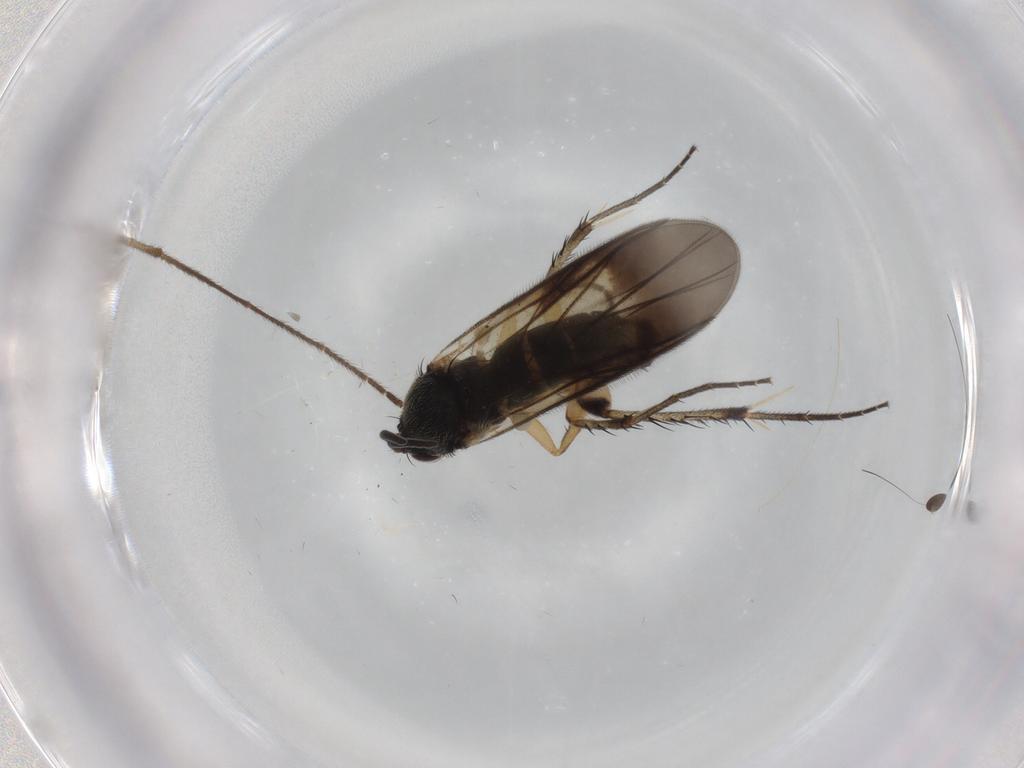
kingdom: Animalia
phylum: Arthropoda
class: Insecta
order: Diptera
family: Mycetophilidae
